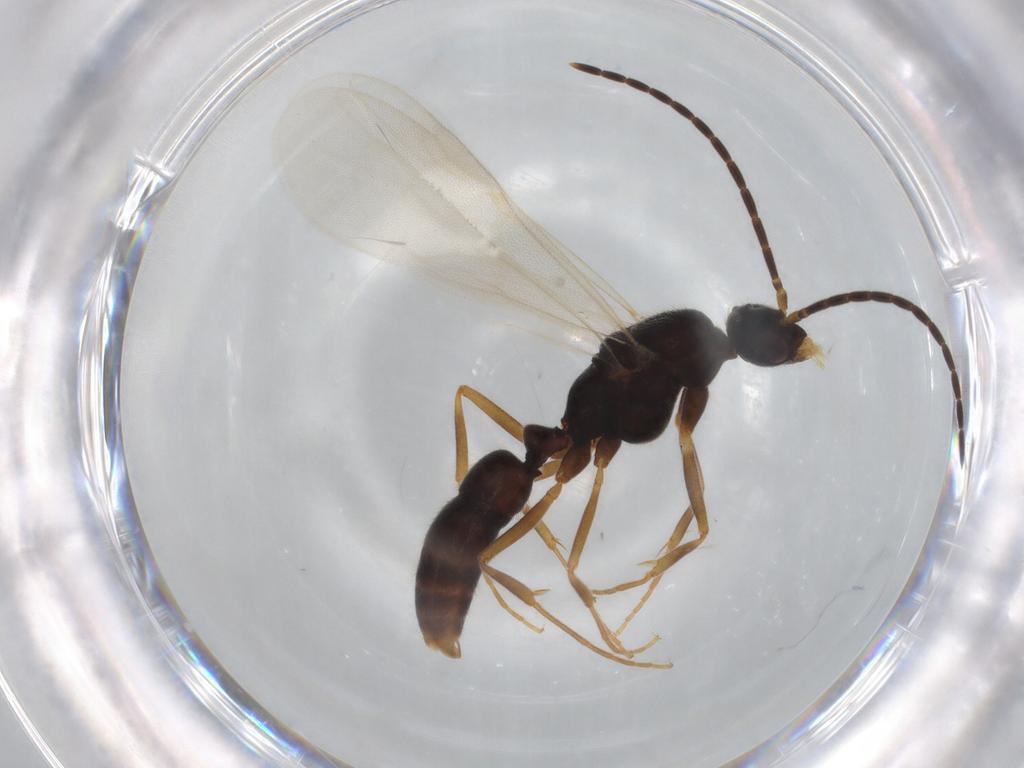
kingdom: Animalia
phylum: Arthropoda
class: Insecta
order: Hymenoptera
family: Formicidae
